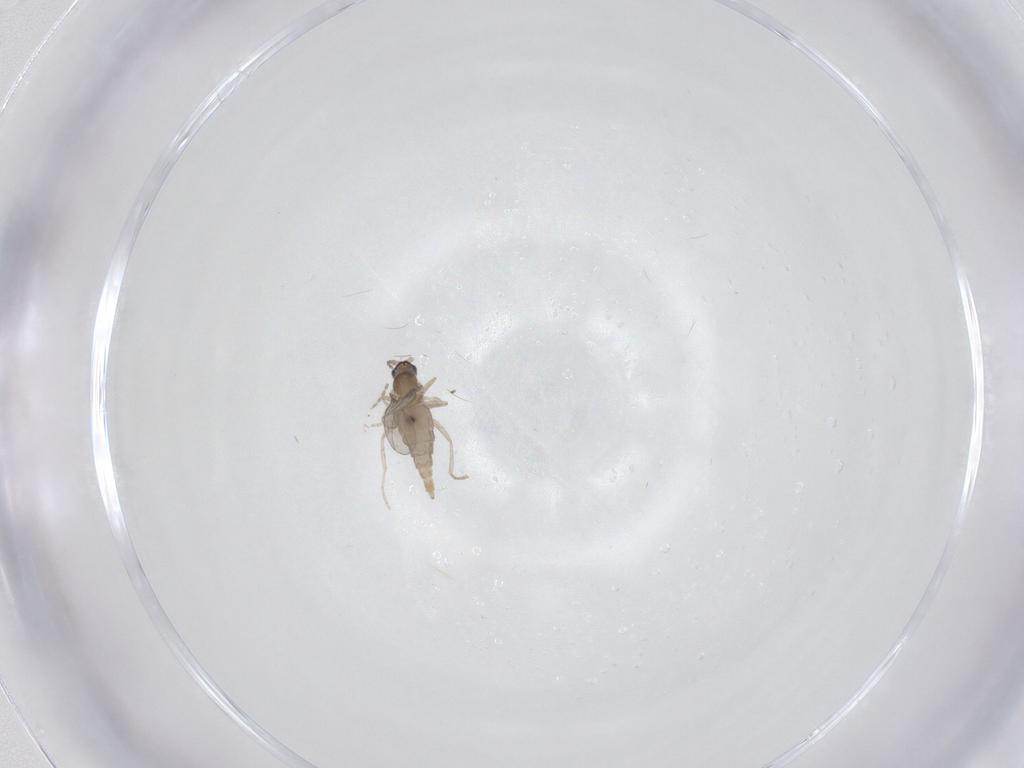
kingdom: Animalia
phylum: Arthropoda
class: Insecta
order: Diptera
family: Cecidomyiidae
